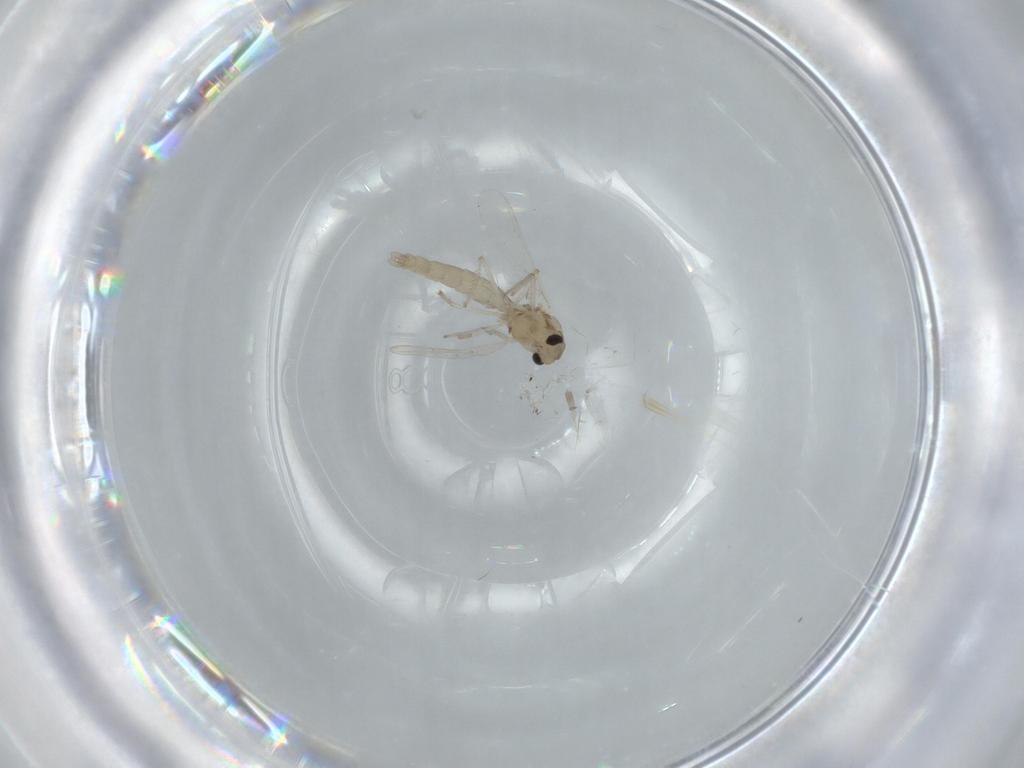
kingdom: Animalia
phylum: Arthropoda
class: Insecta
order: Diptera
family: Chironomidae
